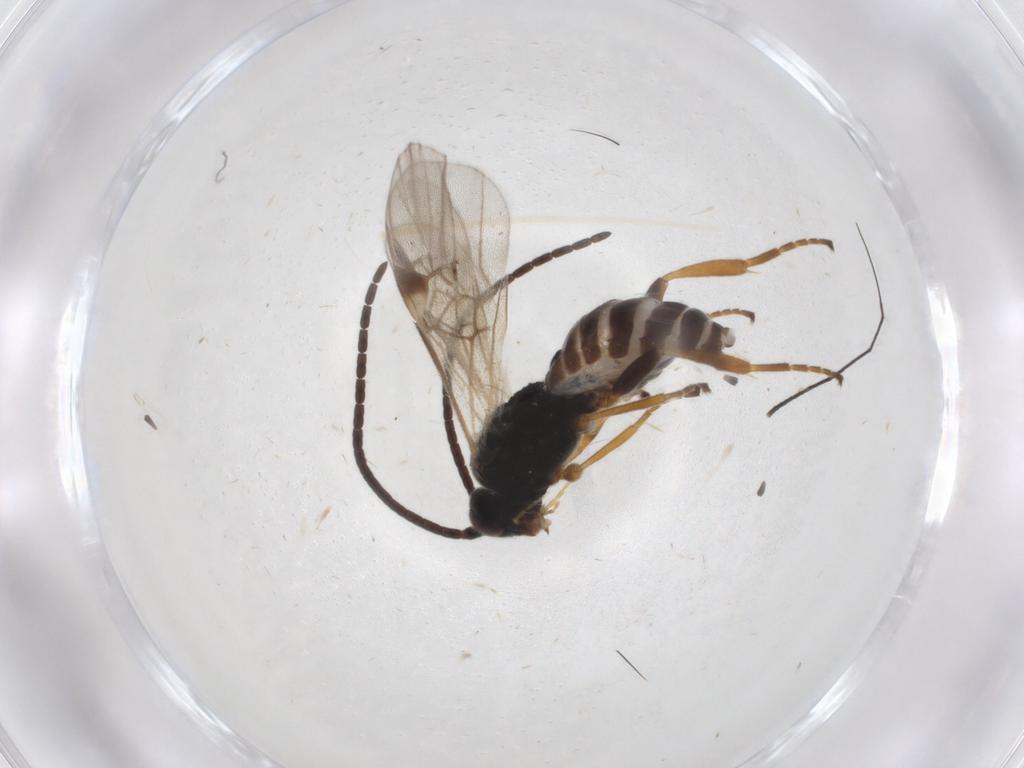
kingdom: Animalia
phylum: Arthropoda
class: Insecta
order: Hymenoptera
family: Braconidae
